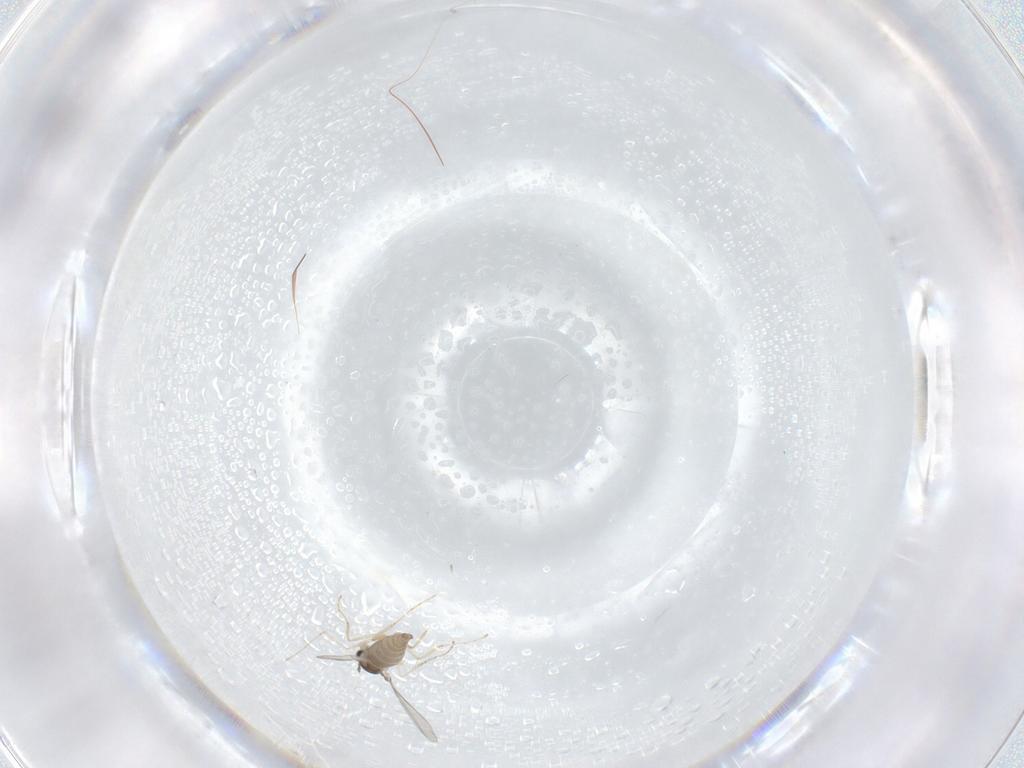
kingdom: Animalia
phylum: Arthropoda
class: Insecta
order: Diptera
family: Cecidomyiidae
